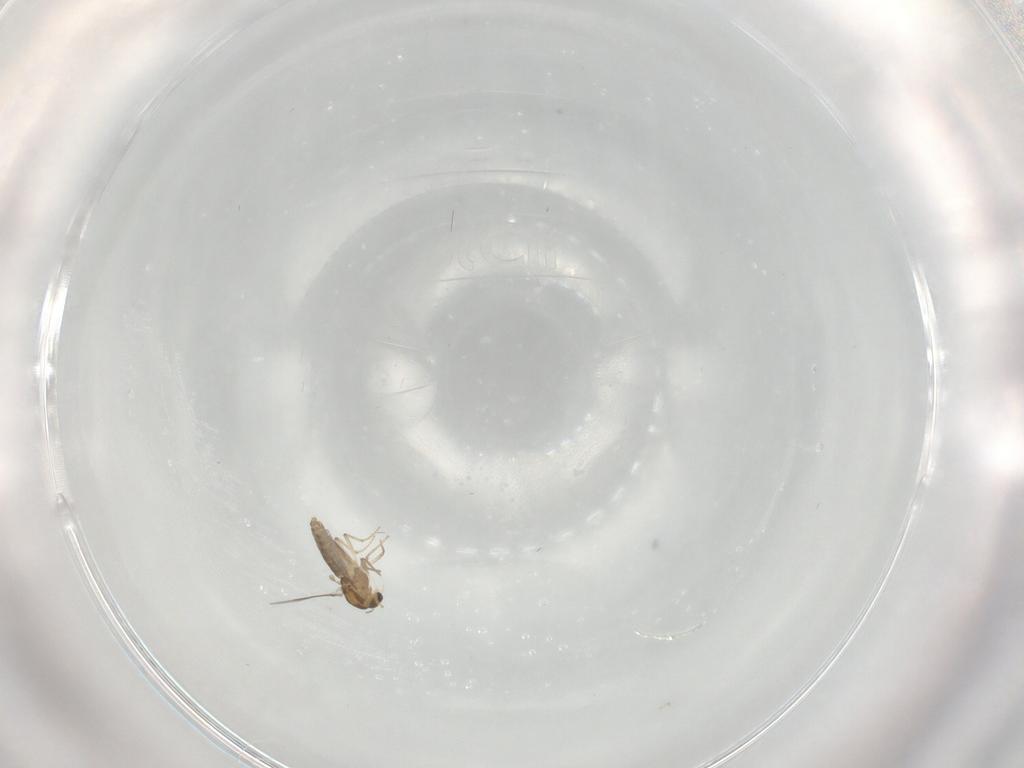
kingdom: Animalia
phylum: Arthropoda
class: Insecta
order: Diptera
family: Chironomidae
